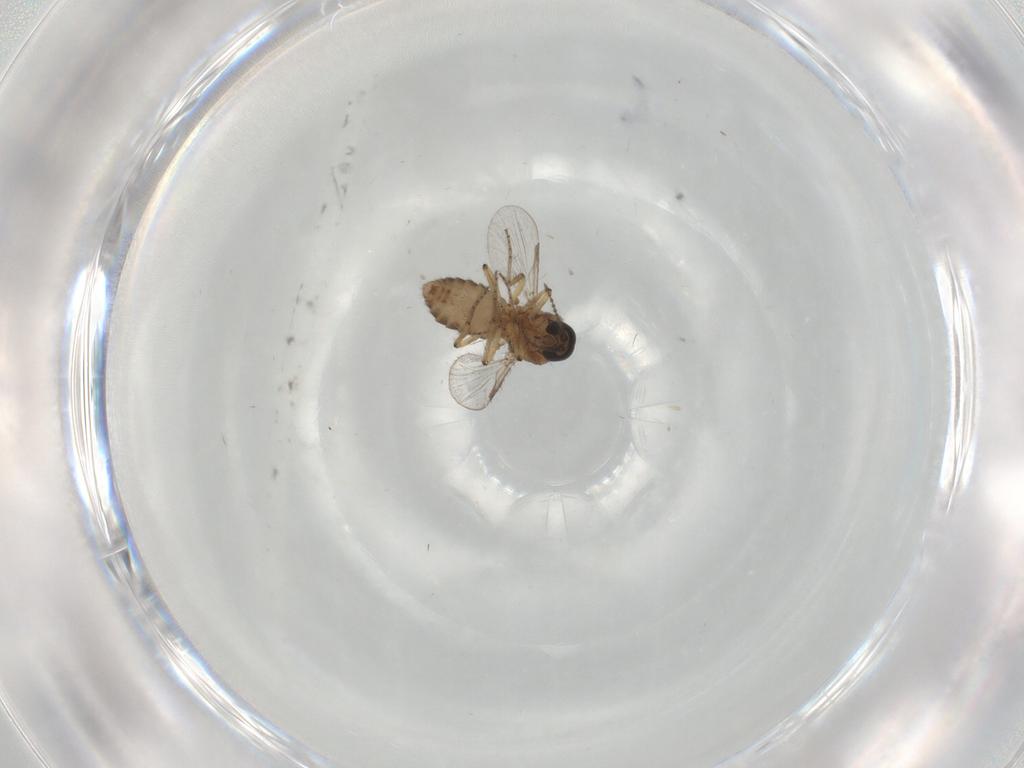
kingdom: Animalia
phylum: Arthropoda
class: Insecta
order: Diptera
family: Ceratopogonidae
